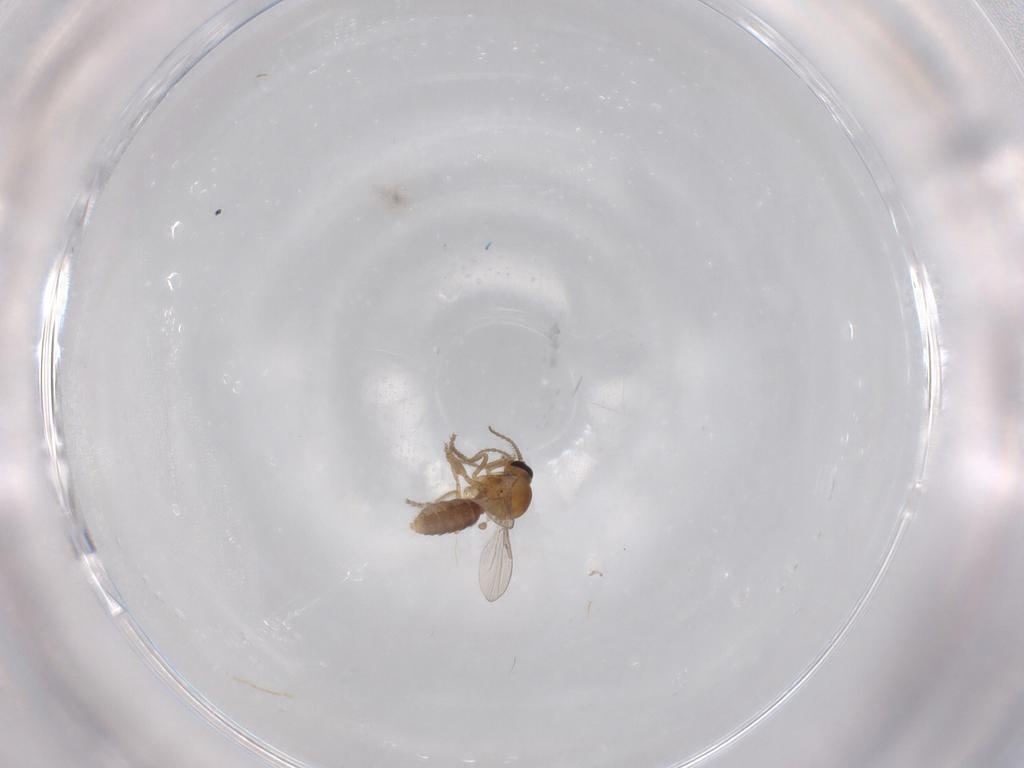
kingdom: Animalia
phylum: Arthropoda
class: Insecta
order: Diptera
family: Ceratopogonidae
